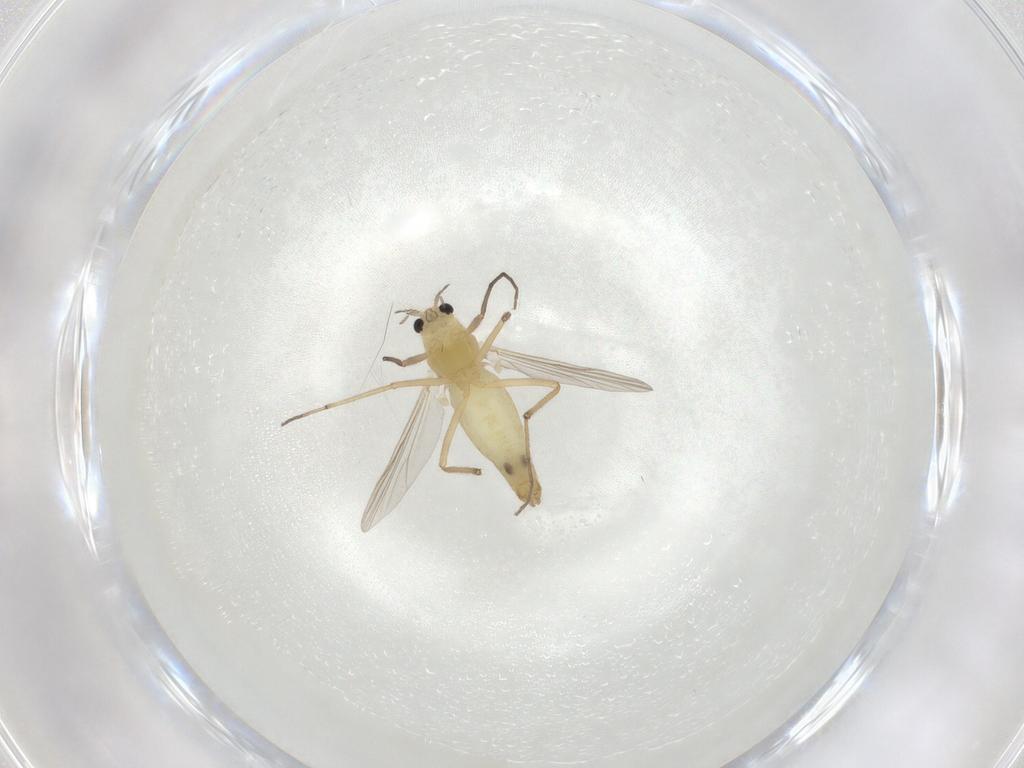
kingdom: Animalia
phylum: Arthropoda
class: Insecta
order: Diptera
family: Chironomidae
